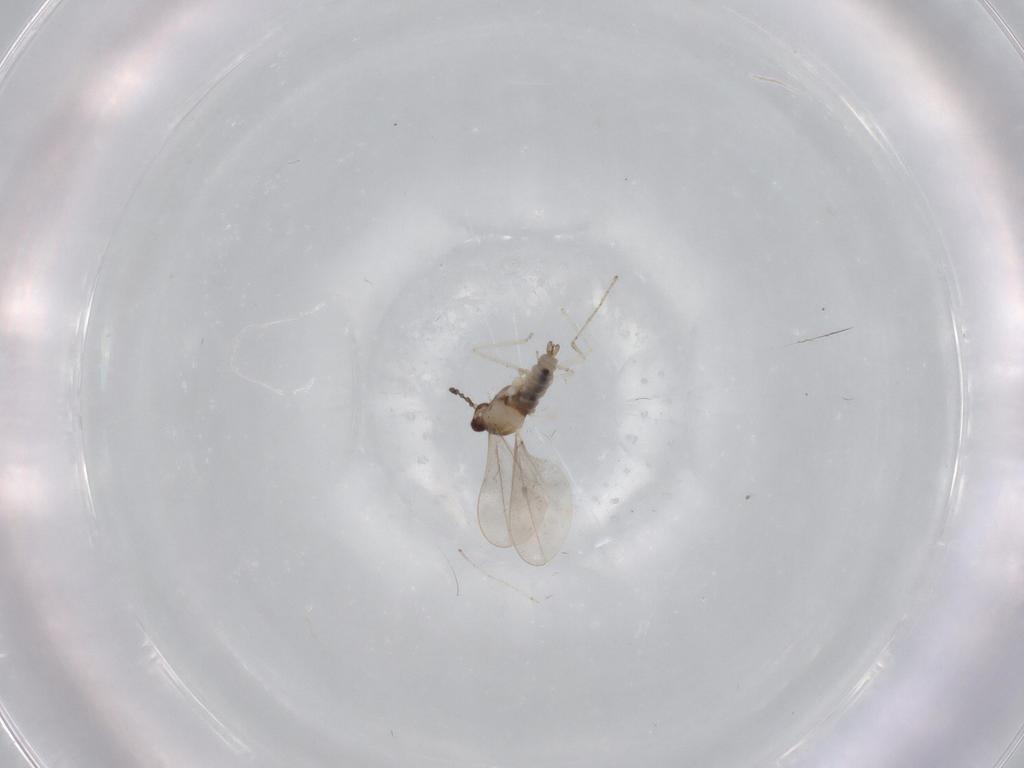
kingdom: Animalia
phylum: Arthropoda
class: Insecta
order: Diptera
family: Cecidomyiidae
